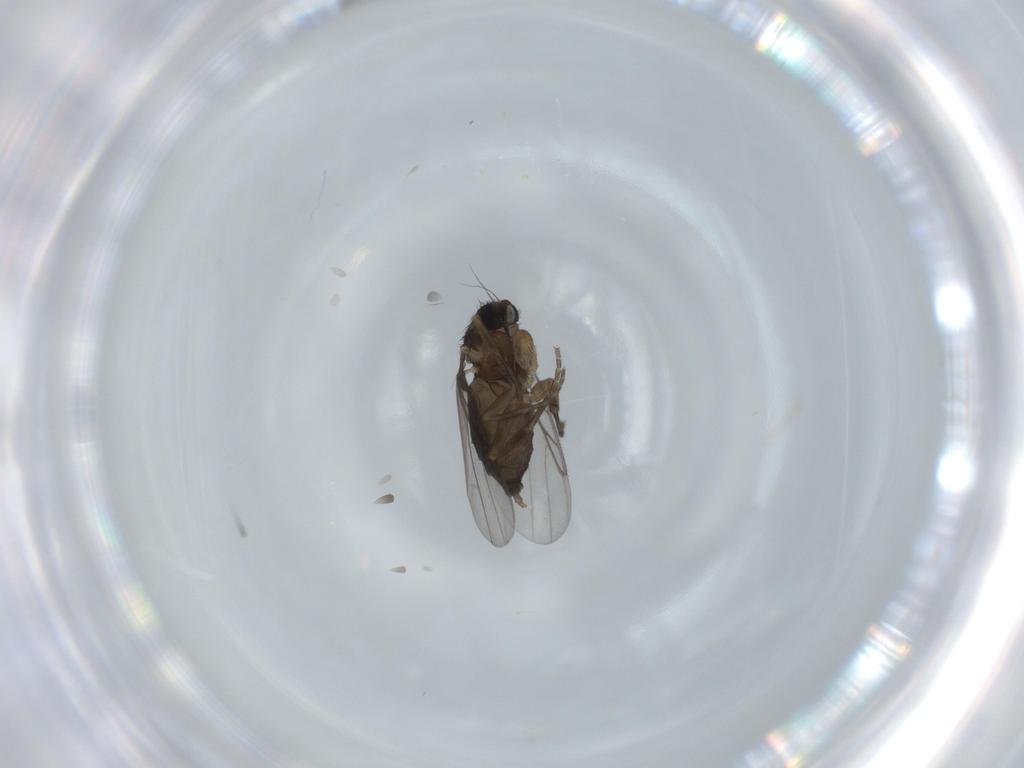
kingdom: Animalia
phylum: Arthropoda
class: Insecta
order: Diptera
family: Phoridae
